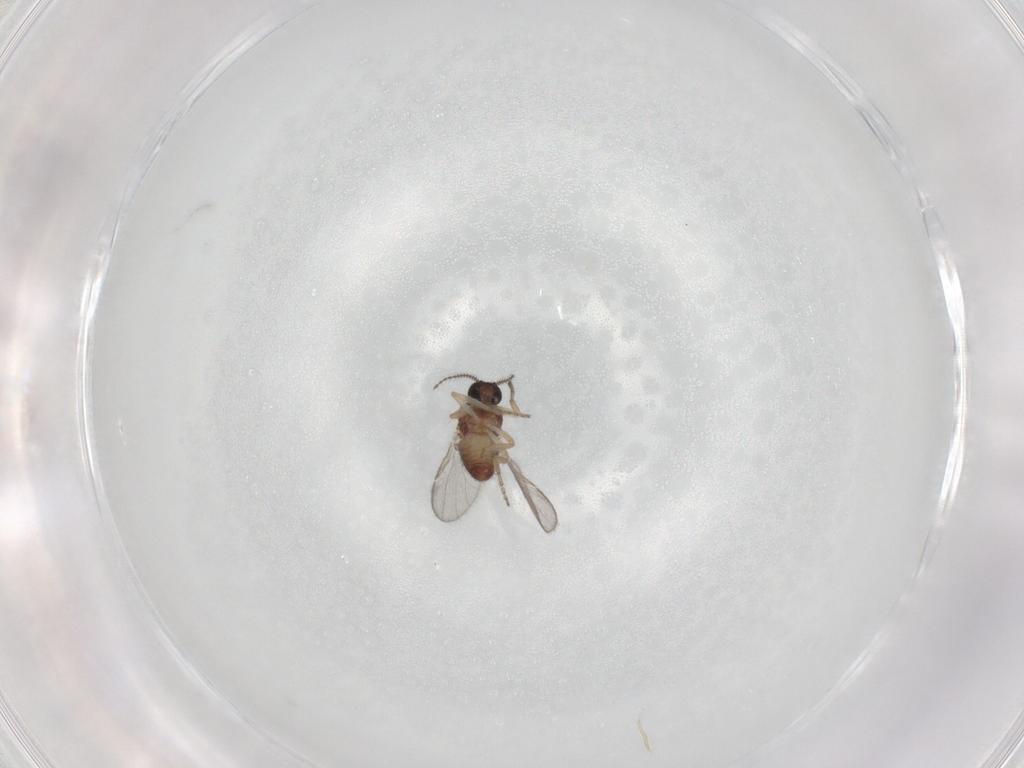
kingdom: Animalia
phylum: Arthropoda
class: Insecta
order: Diptera
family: Ceratopogonidae
